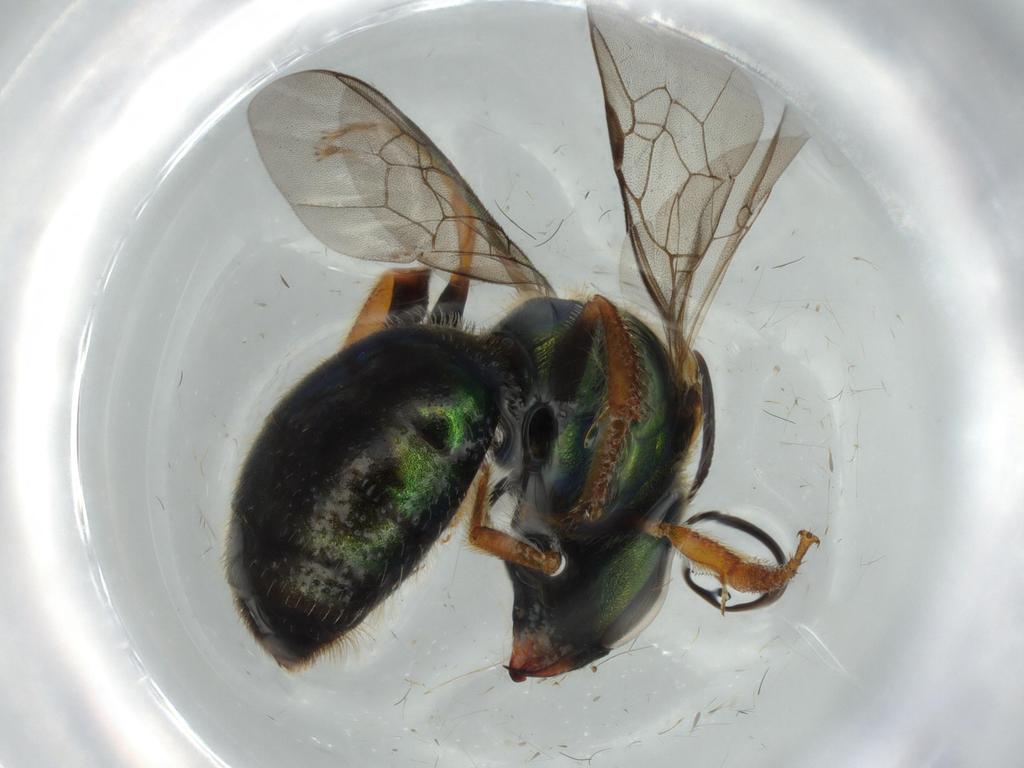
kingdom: Animalia
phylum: Arthropoda
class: Insecta
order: Hymenoptera
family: Halictidae
